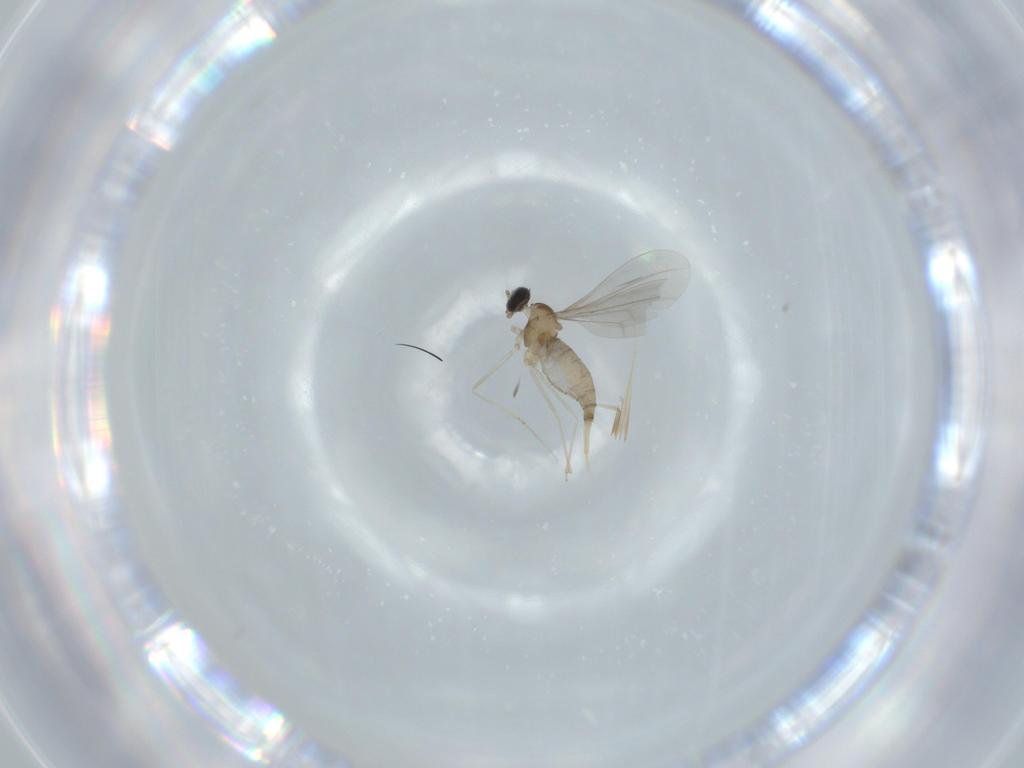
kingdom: Animalia
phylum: Arthropoda
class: Insecta
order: Diptera
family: Cecidomyiidae
